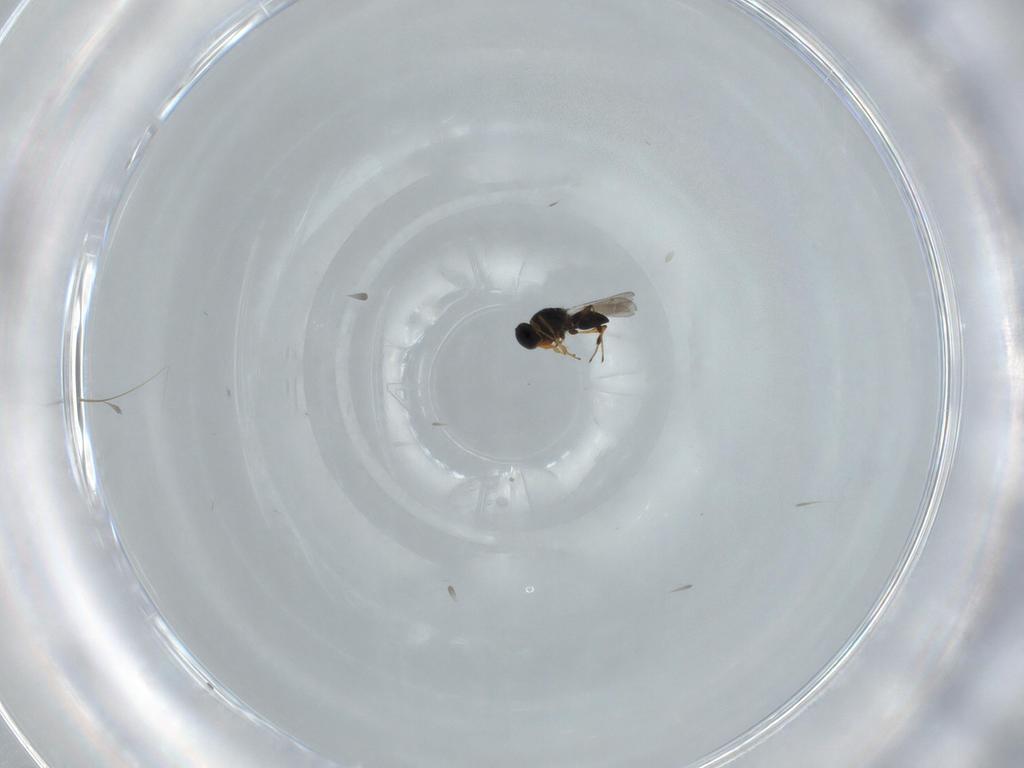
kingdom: Animalia
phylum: Arthropoda
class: Insecta
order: Hymenoptera
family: Platygastridae
